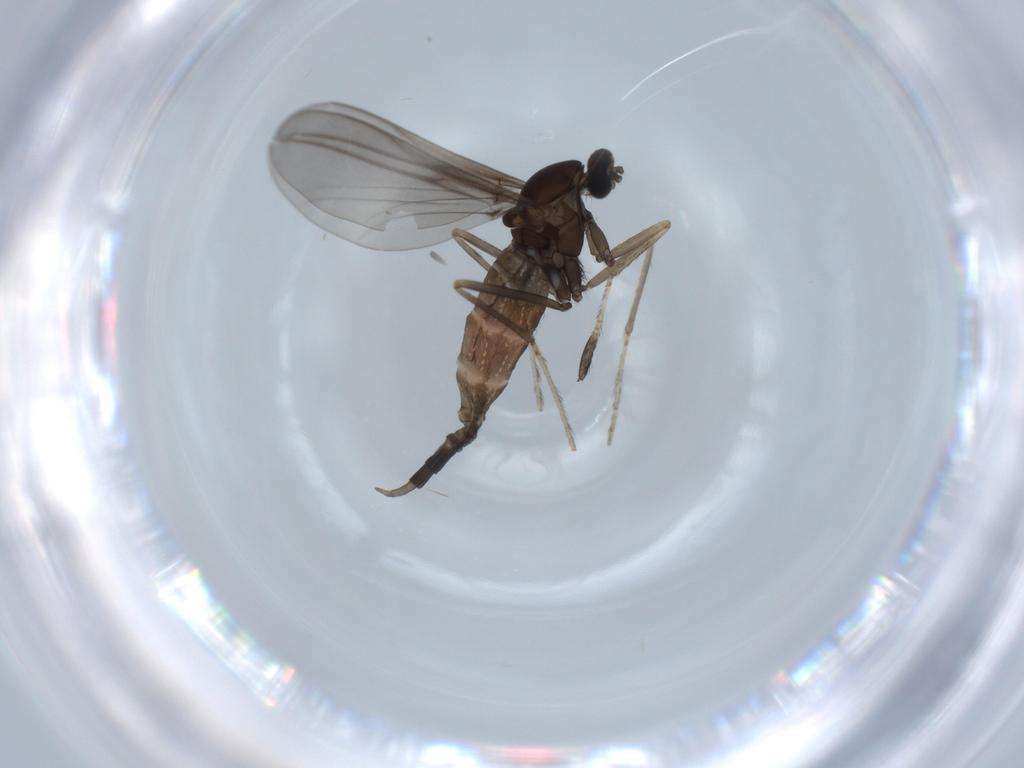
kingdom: Animalia
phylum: Arthropoda
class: Insecta
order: Diptera
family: Cecidomyiidae
